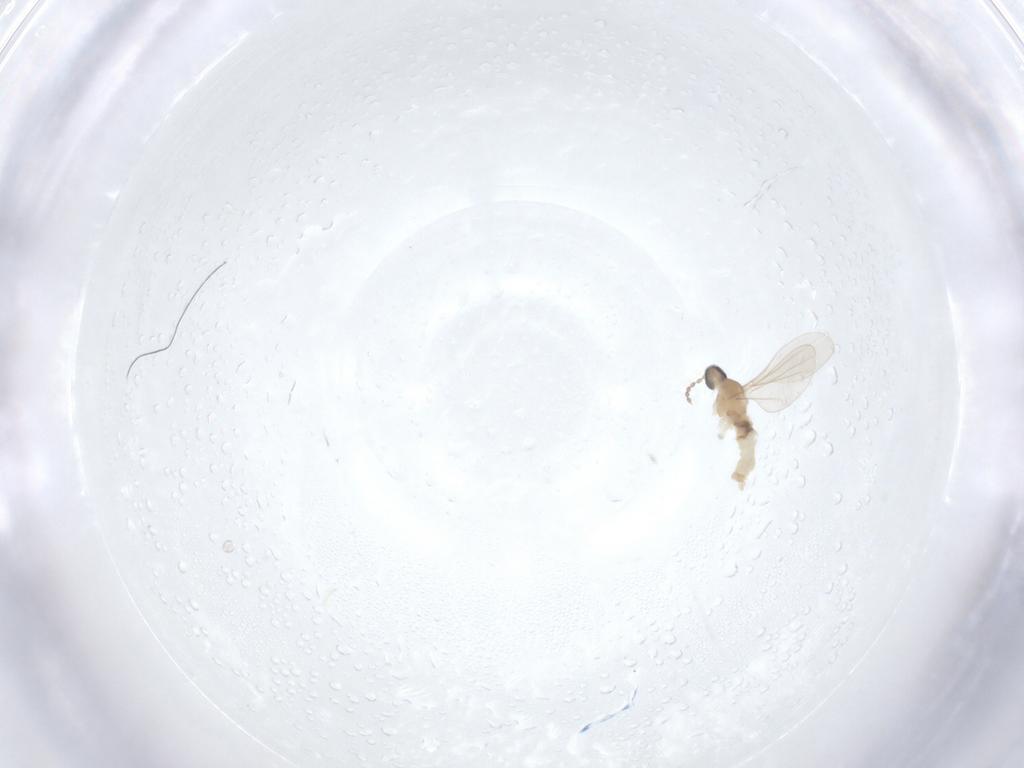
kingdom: Animalia
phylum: Arthropoda
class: Insecta
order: Diptera
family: Cecidomyiidae
